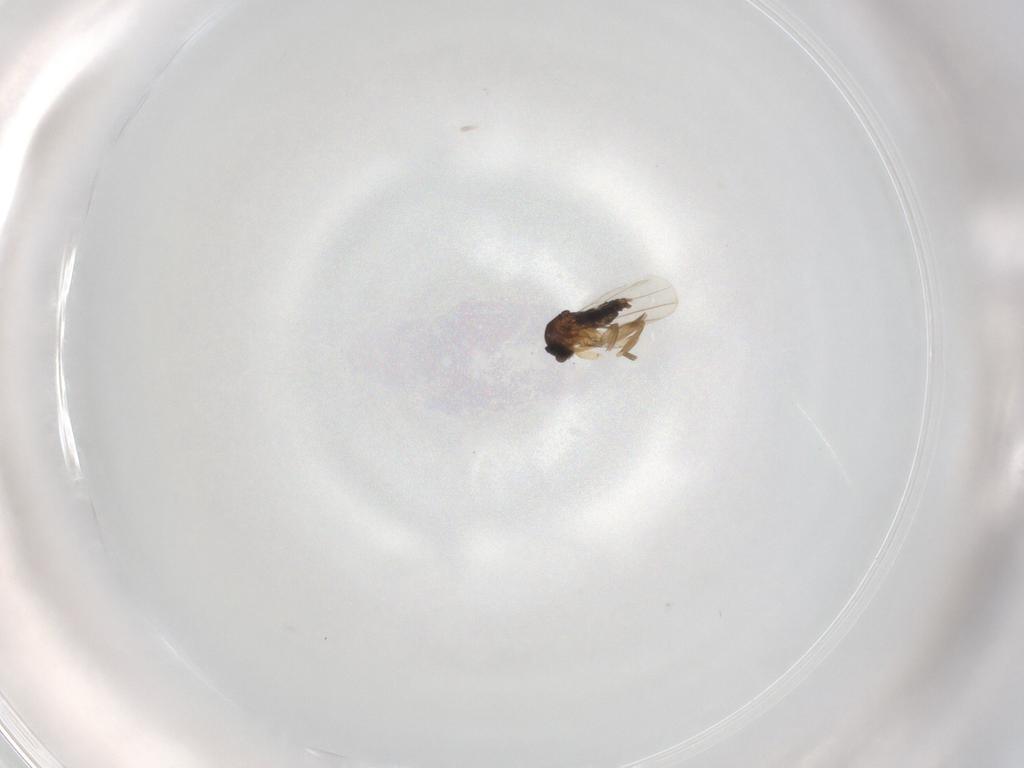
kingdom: Animalia
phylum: Arthropoda
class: Insecta
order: Diptera
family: Phoridae
